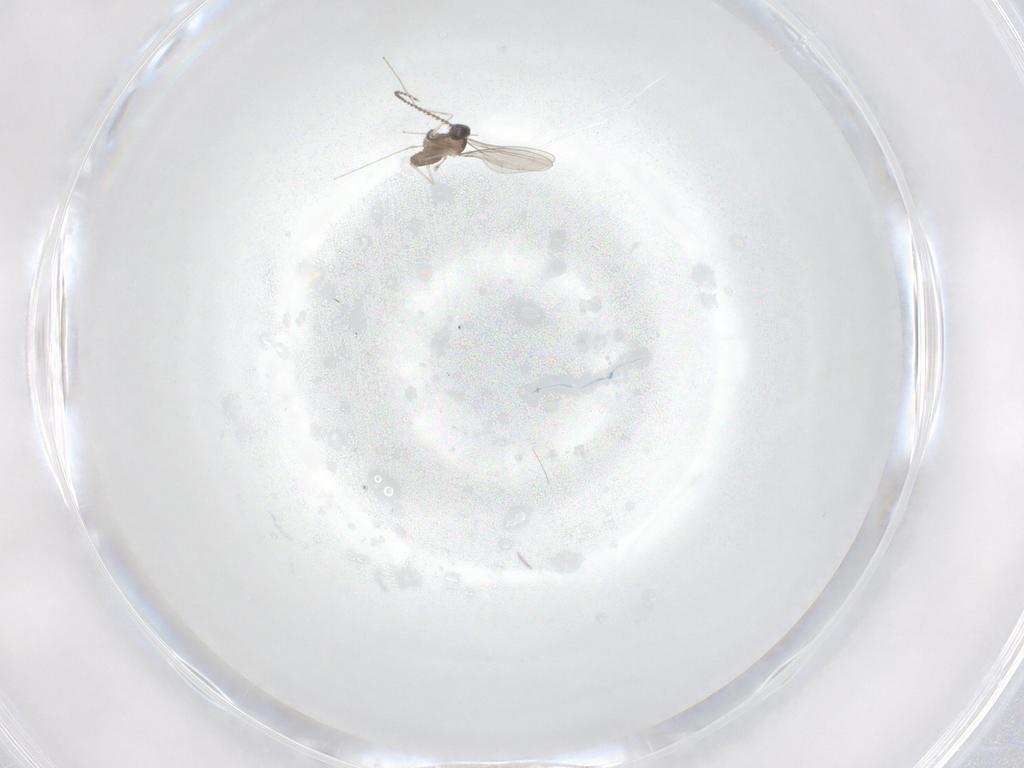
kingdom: Animalia
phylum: Arthropoda
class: Insecta
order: Diptera
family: Cecidomyiidae
